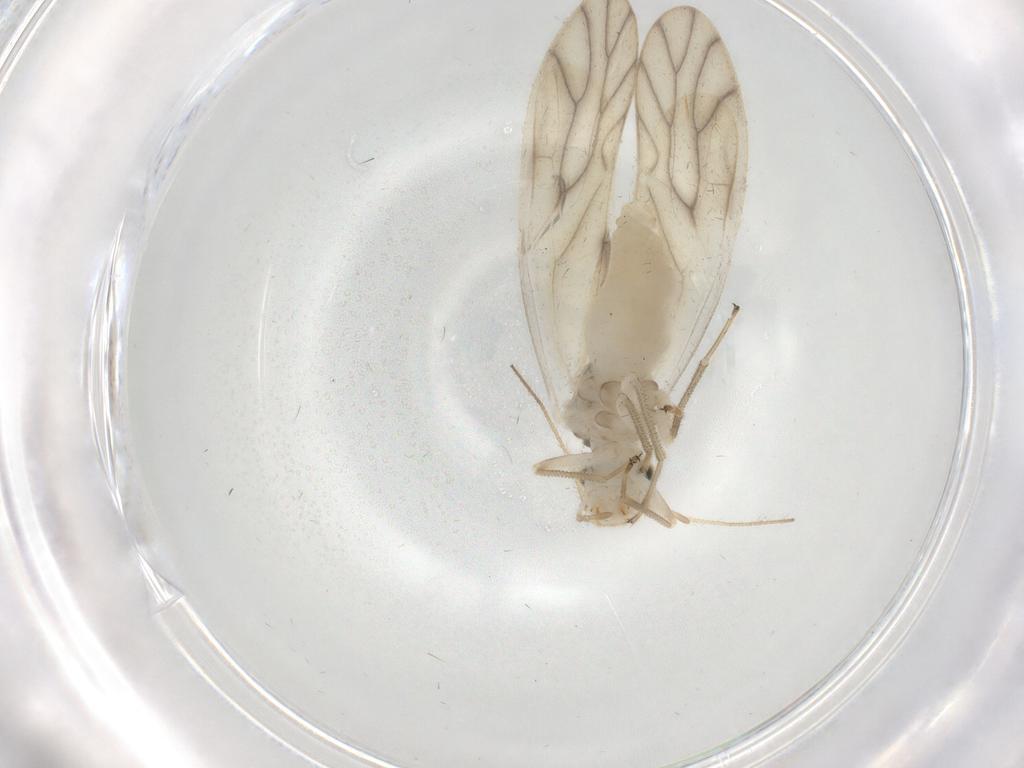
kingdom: Animalia
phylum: Arthropoda
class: Insecta
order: Psocodea
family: Caeciliusidae
